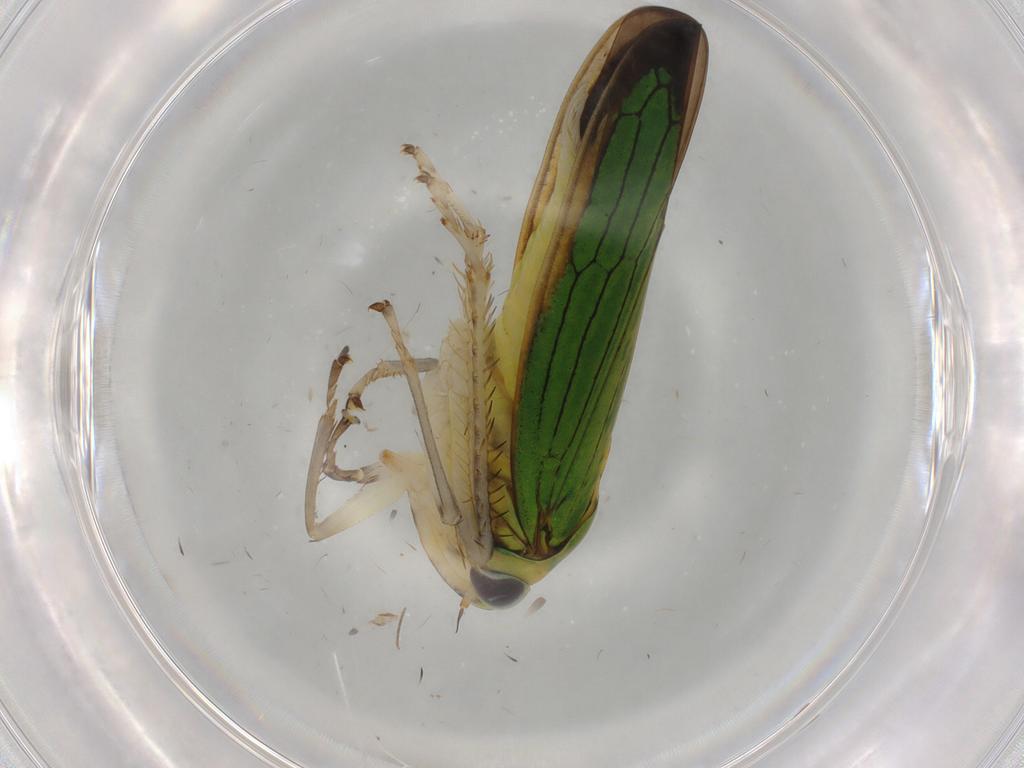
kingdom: Animalia
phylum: Arthropoda
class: Insecta
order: Hemiptera
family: Cicadellidae
